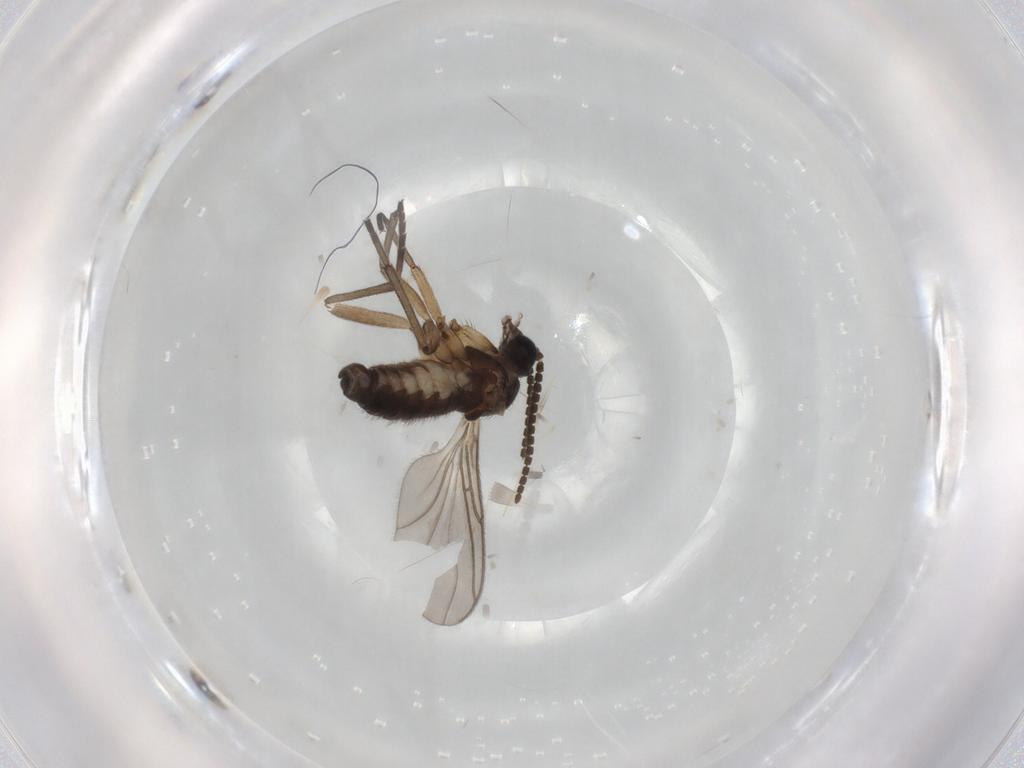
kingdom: Animalia
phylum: Arthropoda
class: Insecta
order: Diptera
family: Sciaridae
